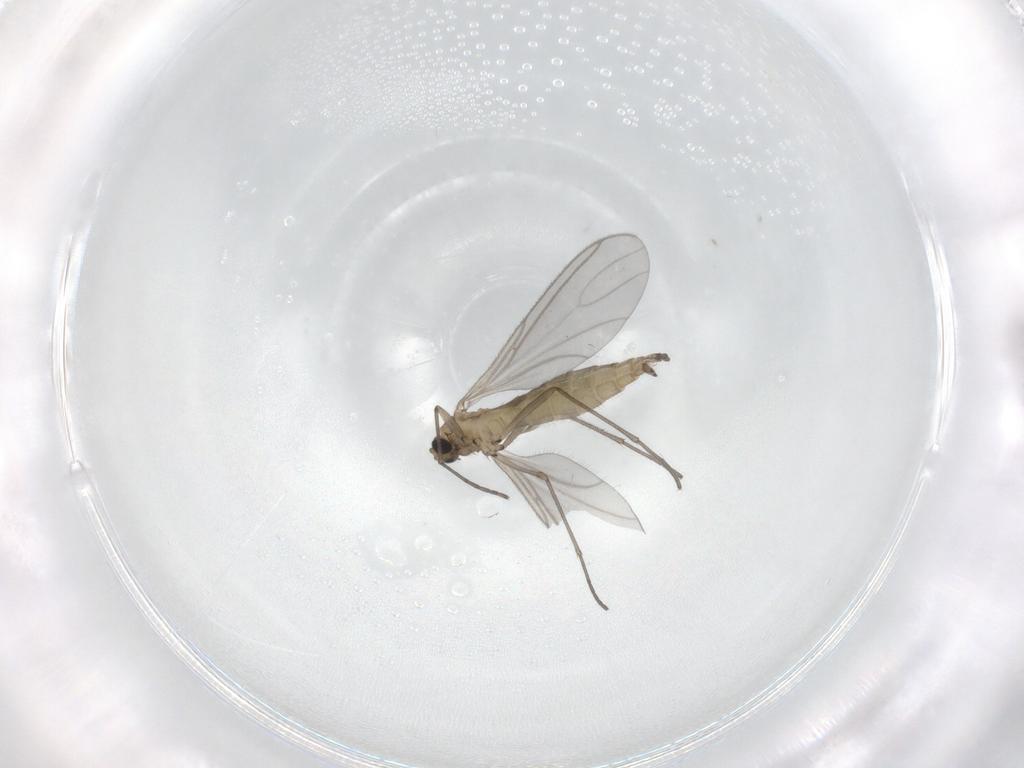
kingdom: Animalia
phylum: Arthropoda
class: Insecta
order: Diptera
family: Sciaridae
